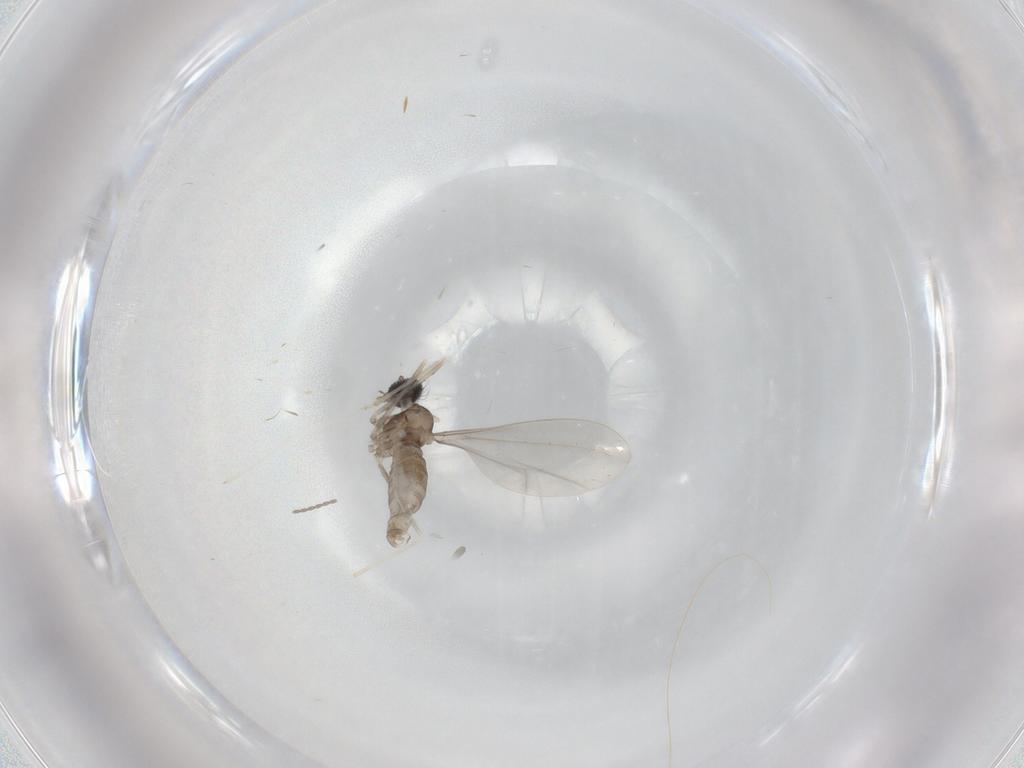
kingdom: Animalia
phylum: Arthropoda
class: Insecta
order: Diptera
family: Cecidomyiidae
